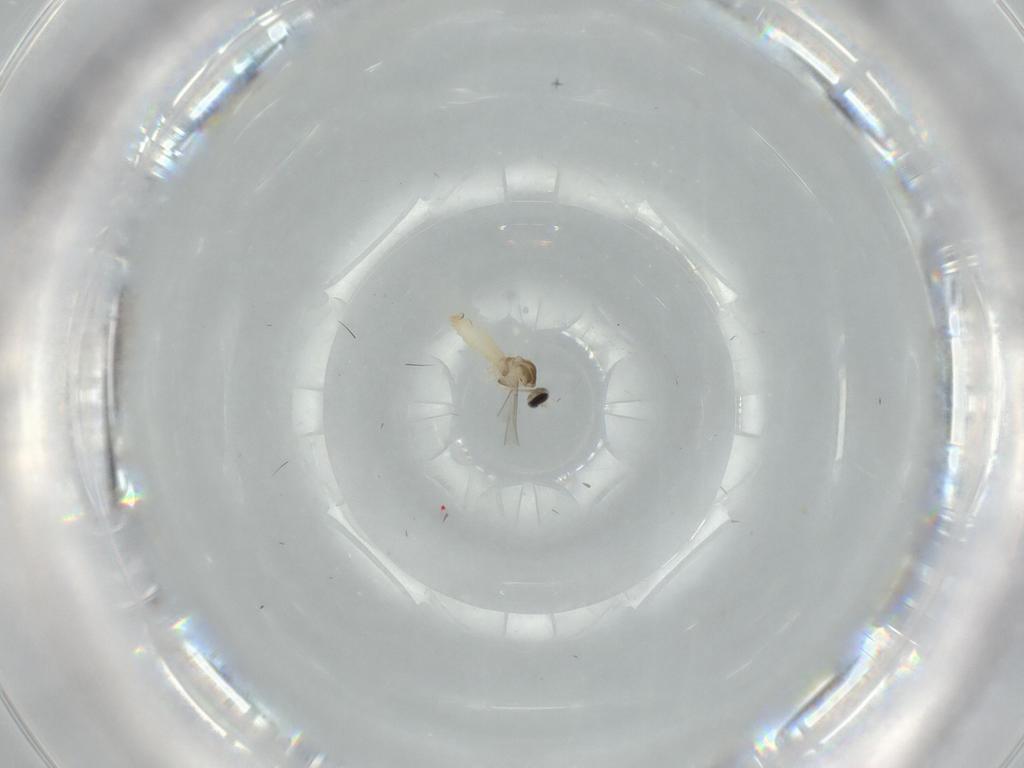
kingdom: Animalia
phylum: Arthropoda
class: Insecta
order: Diptera
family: Cecidomyiidae
